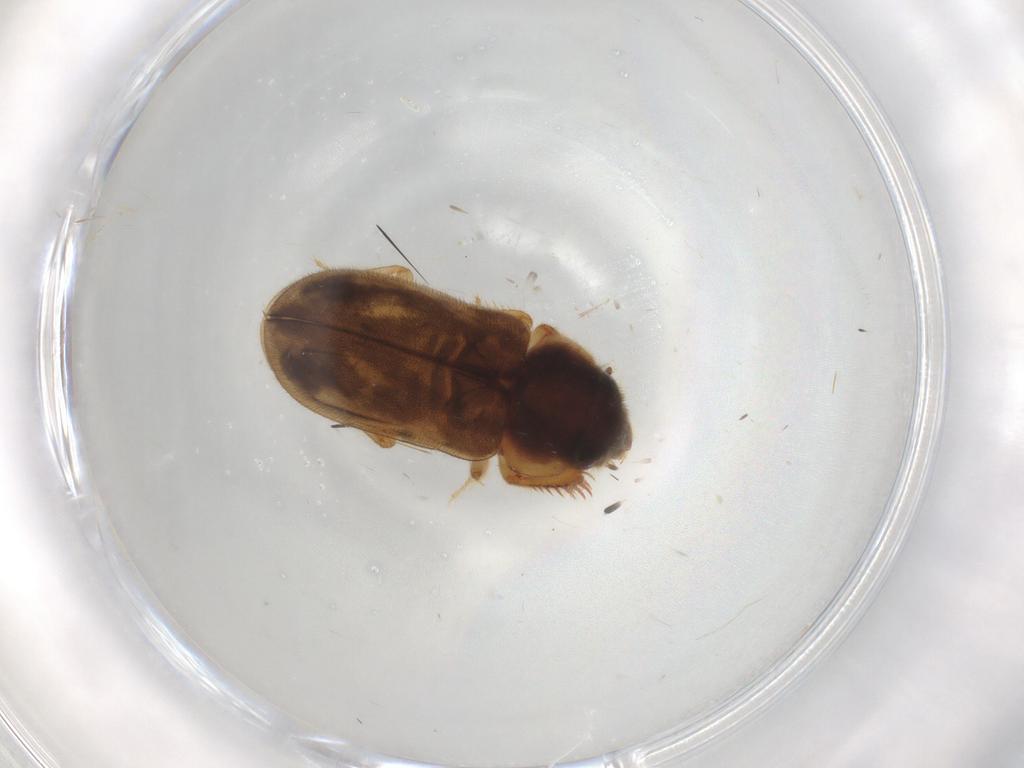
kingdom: Animalia
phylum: Arthropoda
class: Insecta
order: Coleoptera
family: Heteroceridae
